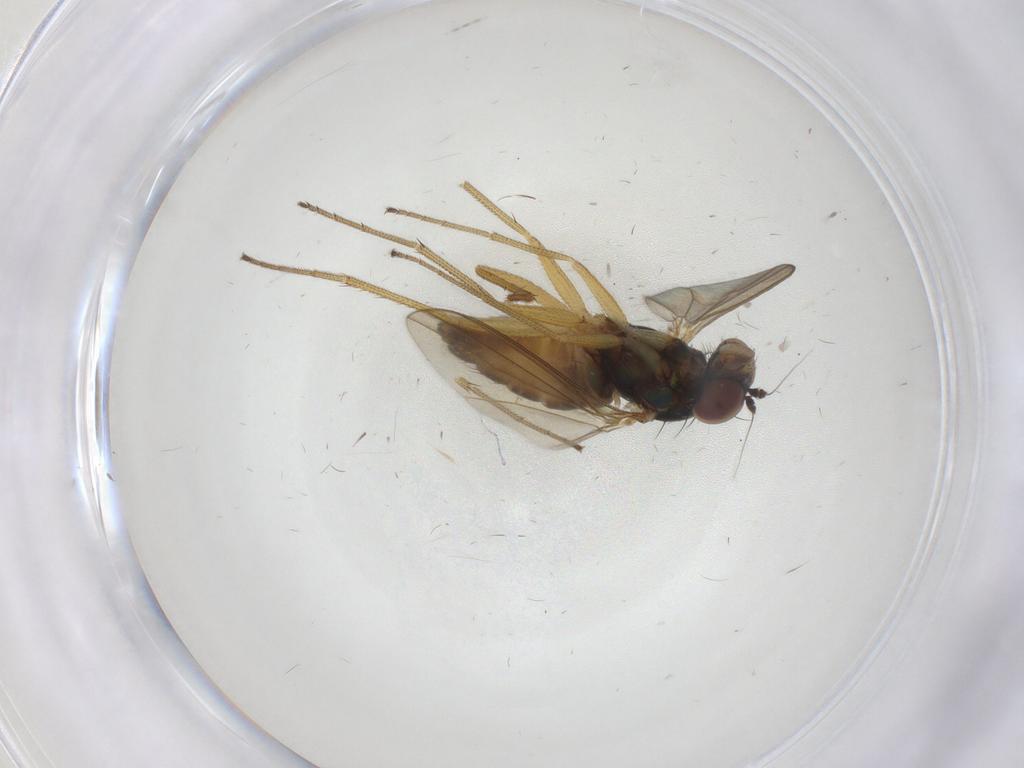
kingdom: Animalia
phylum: Arthropoda
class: Insecta
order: Diptera
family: Dolichopodidae
